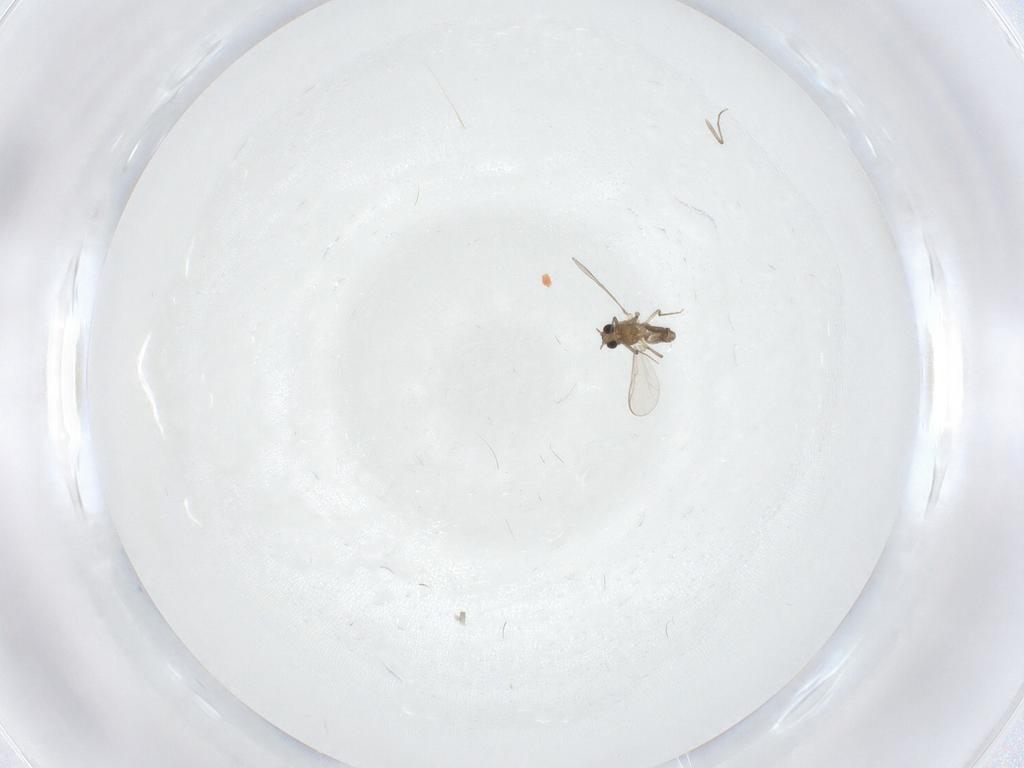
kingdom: Animalia
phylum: Arthropoda
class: Insecta
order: Diptera
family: Chironomidae
